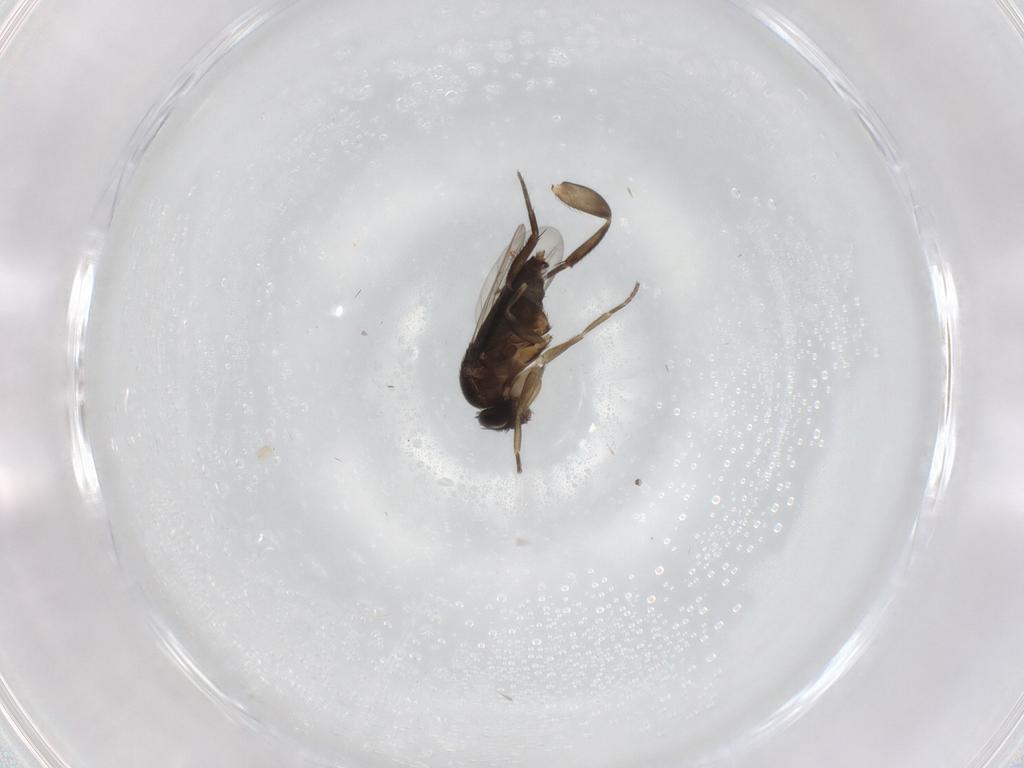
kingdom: Animalia
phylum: Arthropoda
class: Insecta
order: Diptera
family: Phoridae
